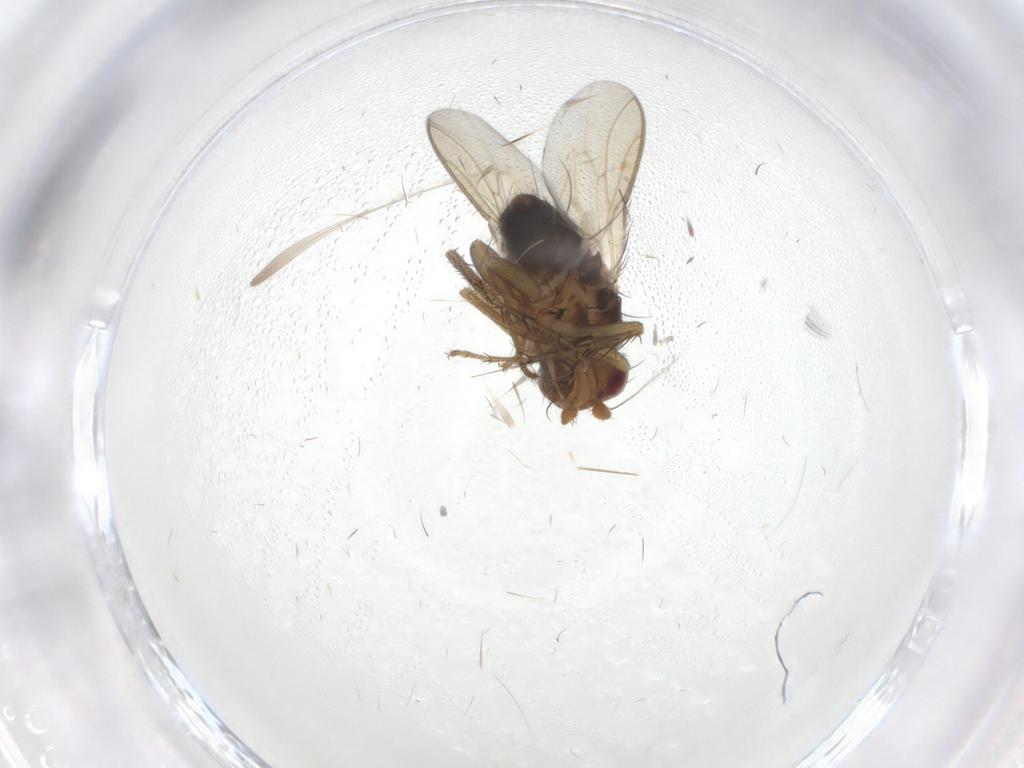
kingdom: Animalia
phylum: Arthropoda
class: Insecta
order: Diptera
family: Sphaeroceridae
